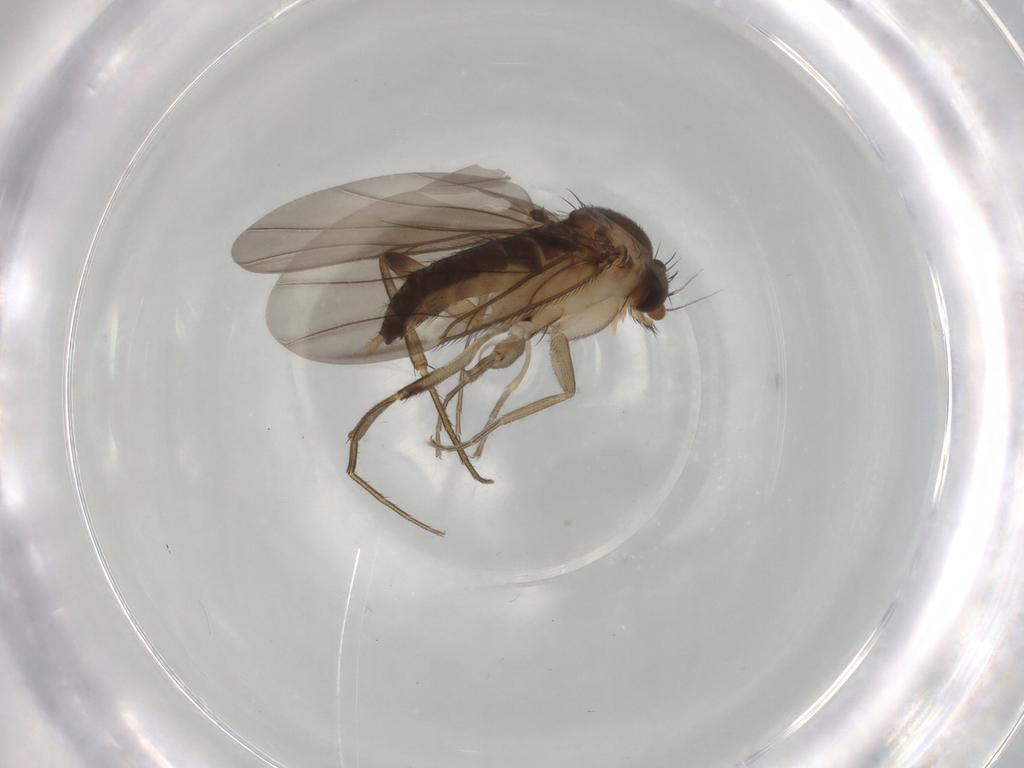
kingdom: Animalia
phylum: Arthropoda
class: Insecta
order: Diptera
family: Phoridae
